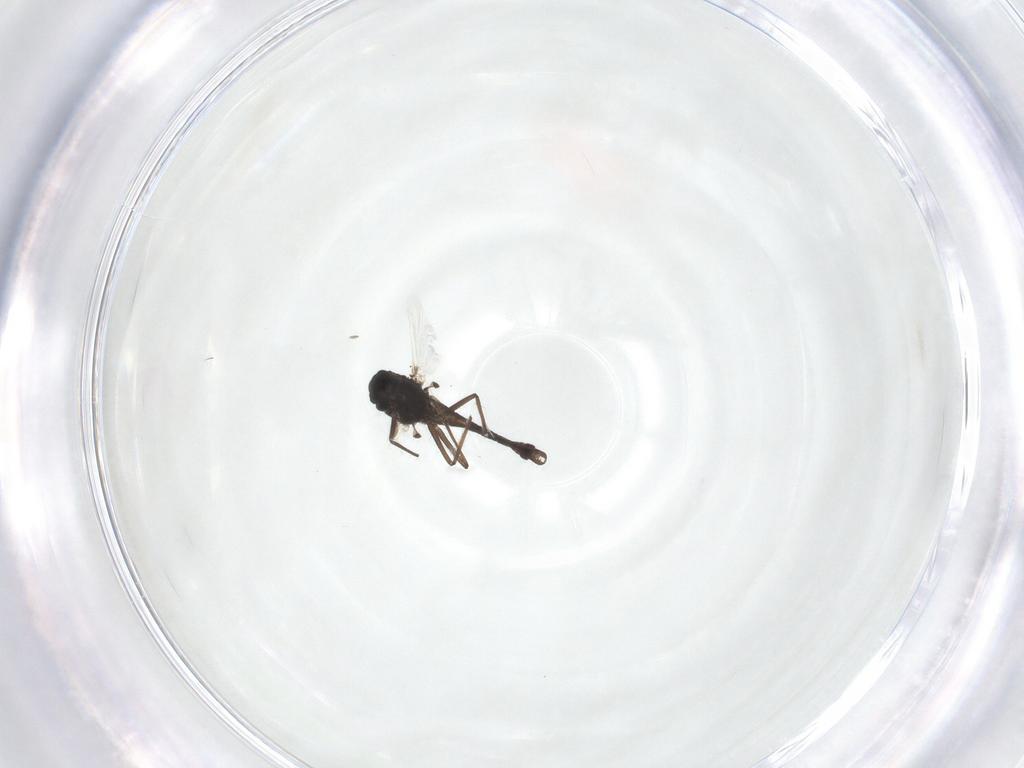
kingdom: Animalia
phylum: Arthropoda
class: Insecta
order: Diptera
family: Chironomidae
